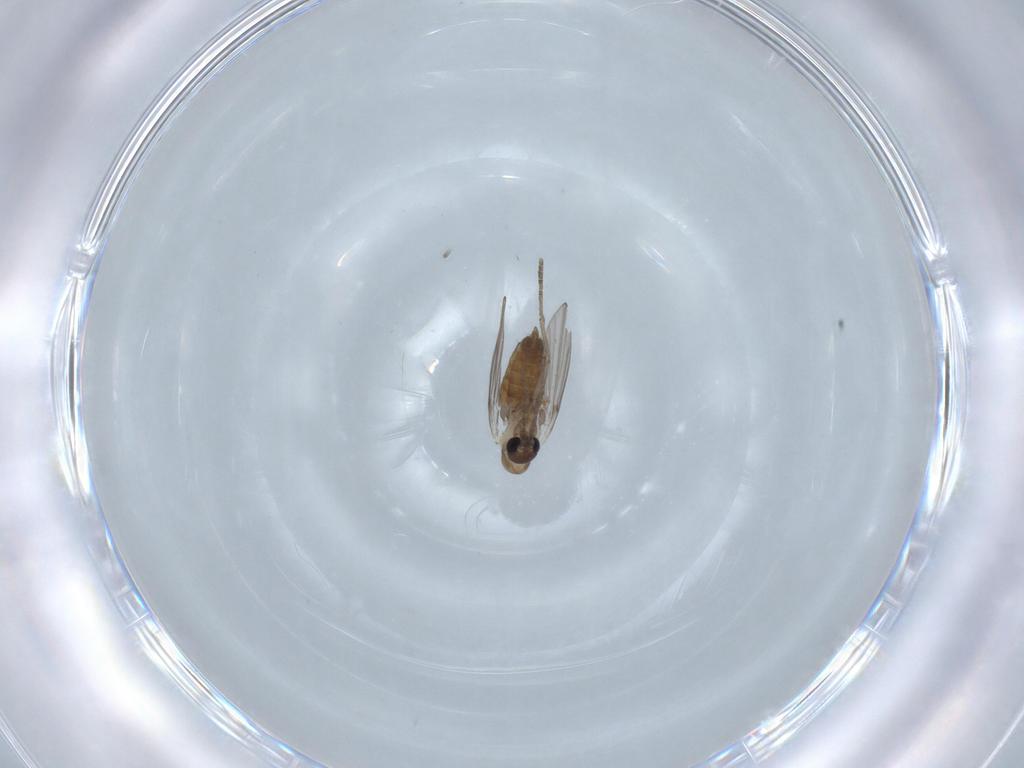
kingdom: Animalia
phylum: Arthropoda
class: Insecta
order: Diptera
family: Psychodidae
